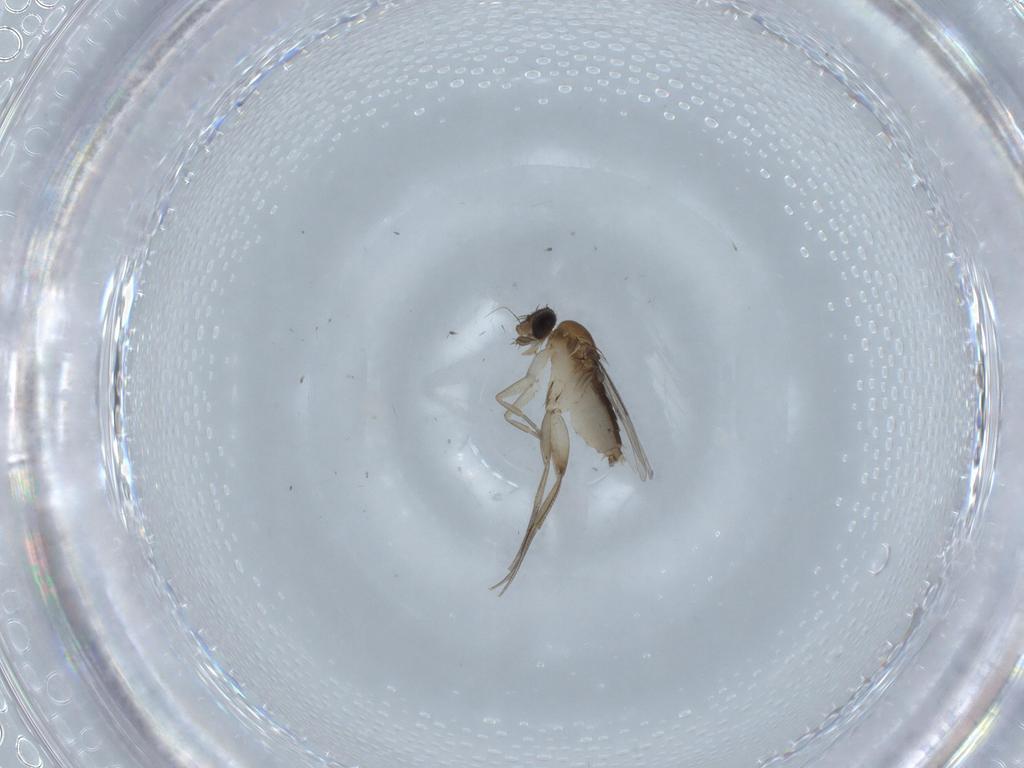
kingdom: Animalia
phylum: Arthropoda
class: Insecta
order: Diptera
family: Phoridae
